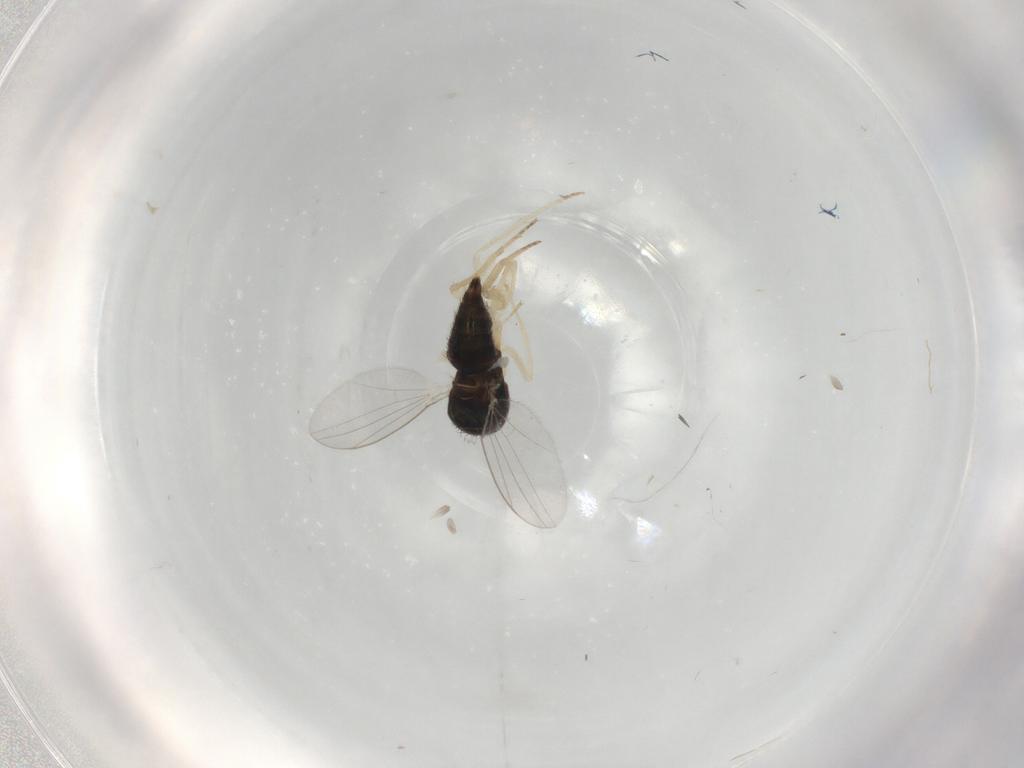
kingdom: Animalia
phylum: Arthropoda
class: Insecta
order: Diptera
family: Dolichopodidae
